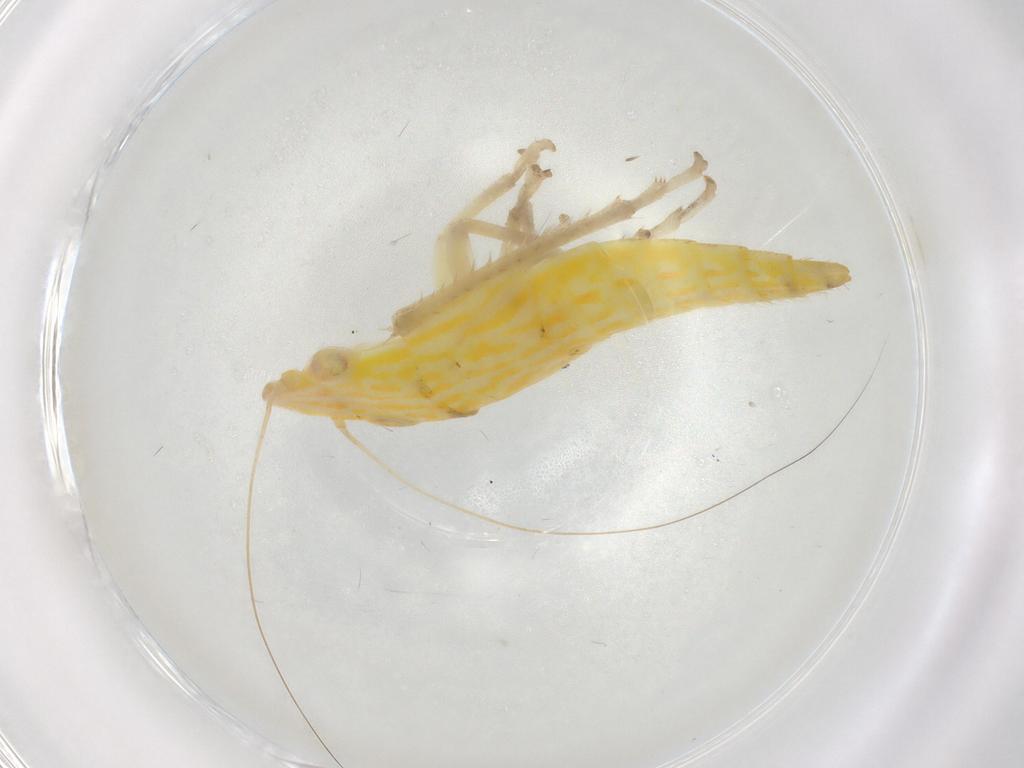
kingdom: Animalia
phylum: Arthropoda
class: Insecta
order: Hemiptera
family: Cicadellidae
